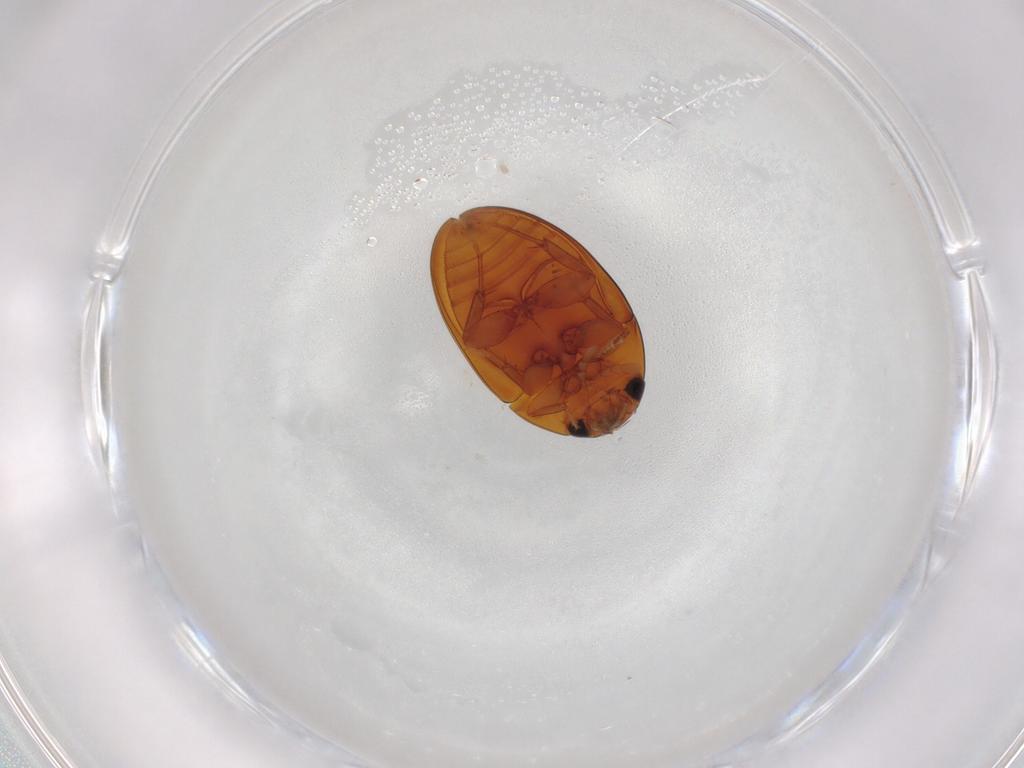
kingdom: Animalia
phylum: Arthropoda
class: Insecta
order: Coleoptera
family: Phalacridae
